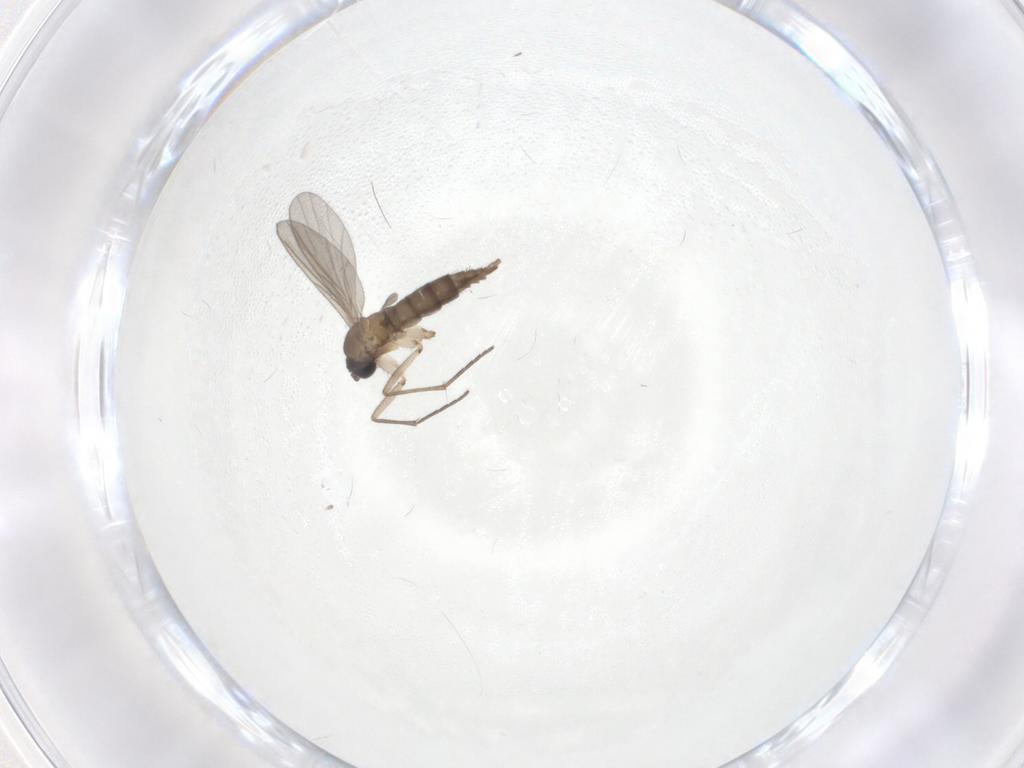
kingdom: Animalia
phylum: Arthropoda
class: Insecta
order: Diptera
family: Sciaridae
